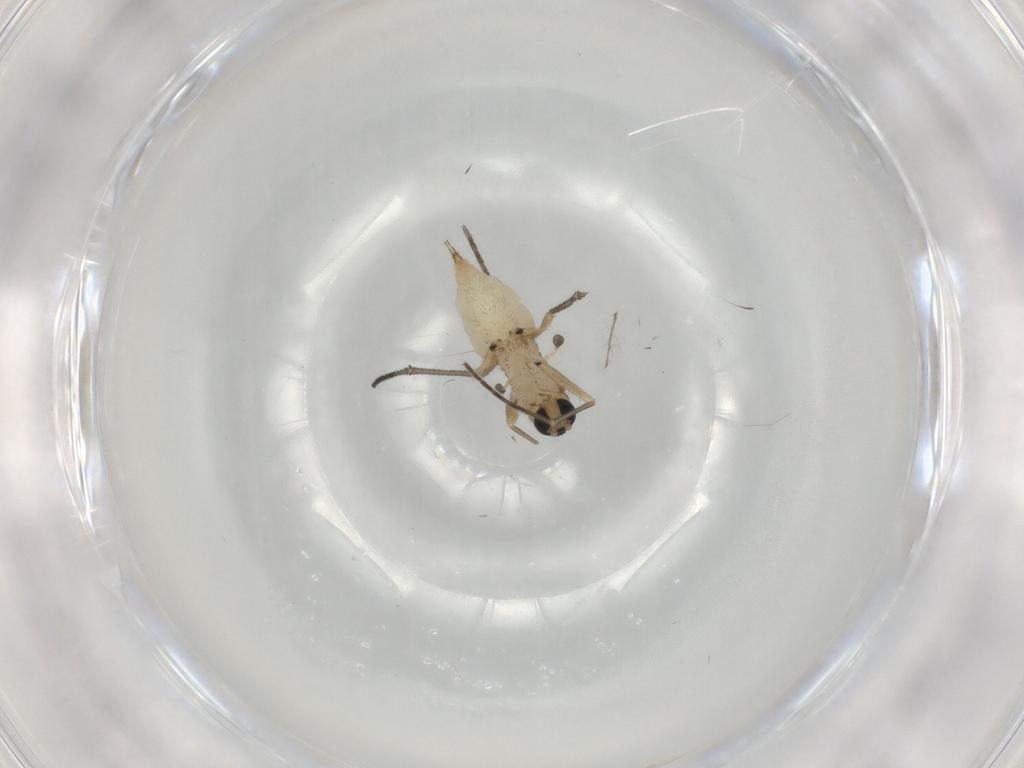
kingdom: Animalia
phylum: Arthropoda
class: Insecta
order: Diptera
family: Sciaridae
